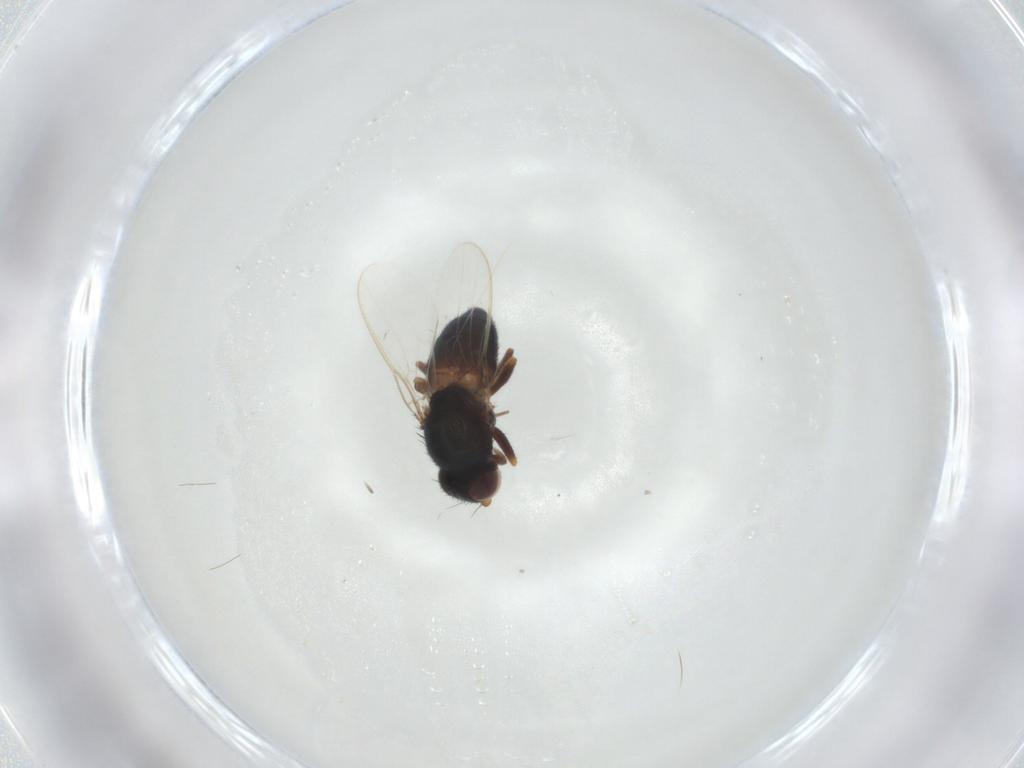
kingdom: Animalia
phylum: Arthropoda
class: Insecta
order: Diptera
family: Chloropidae
